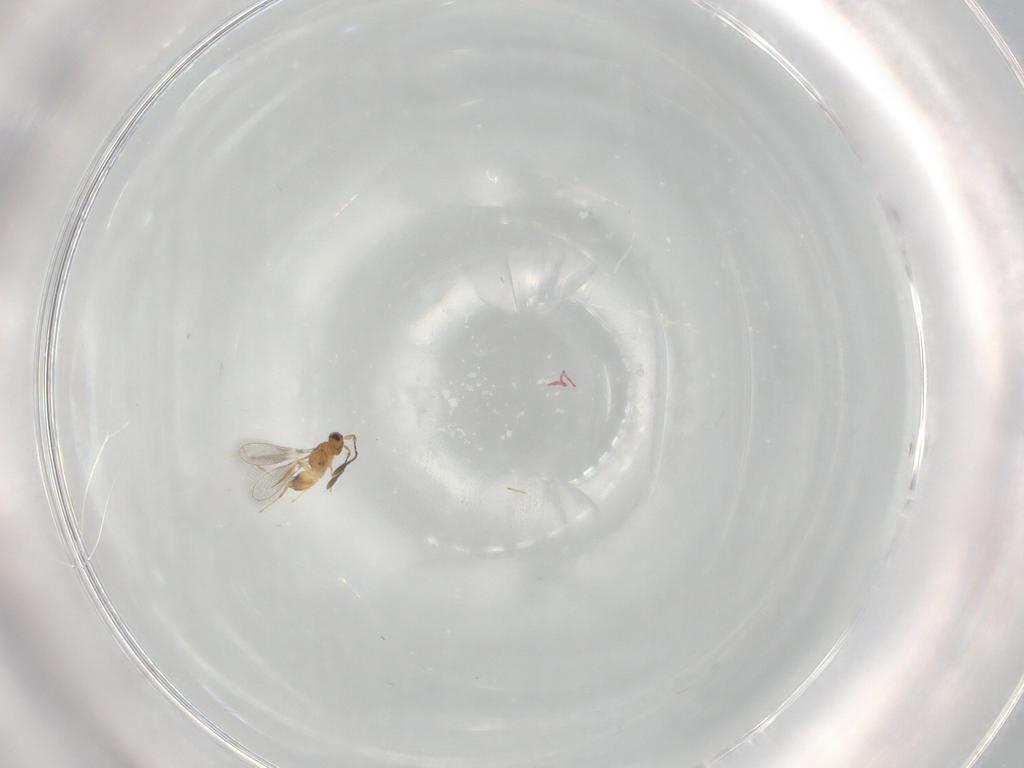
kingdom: Animalia
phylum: Arthropoda
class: Insecta
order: Hymenoptera
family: Mymaridae
